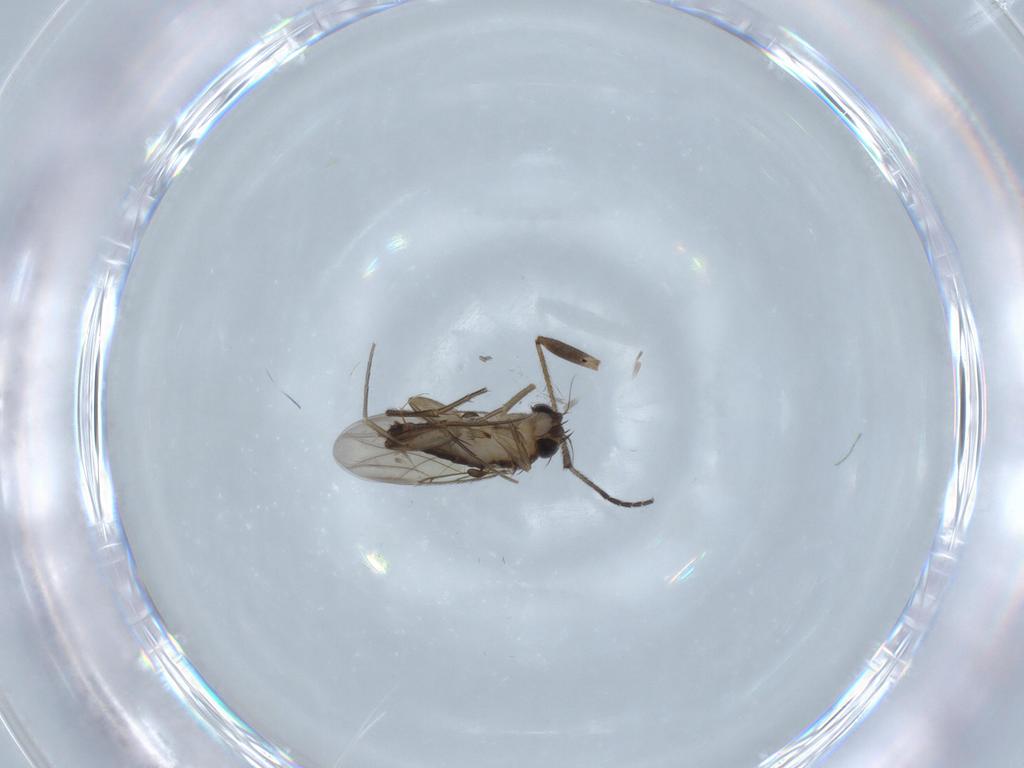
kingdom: Animalia
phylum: Arthropoda
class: Insecta
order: Diptera
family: Phoridae
